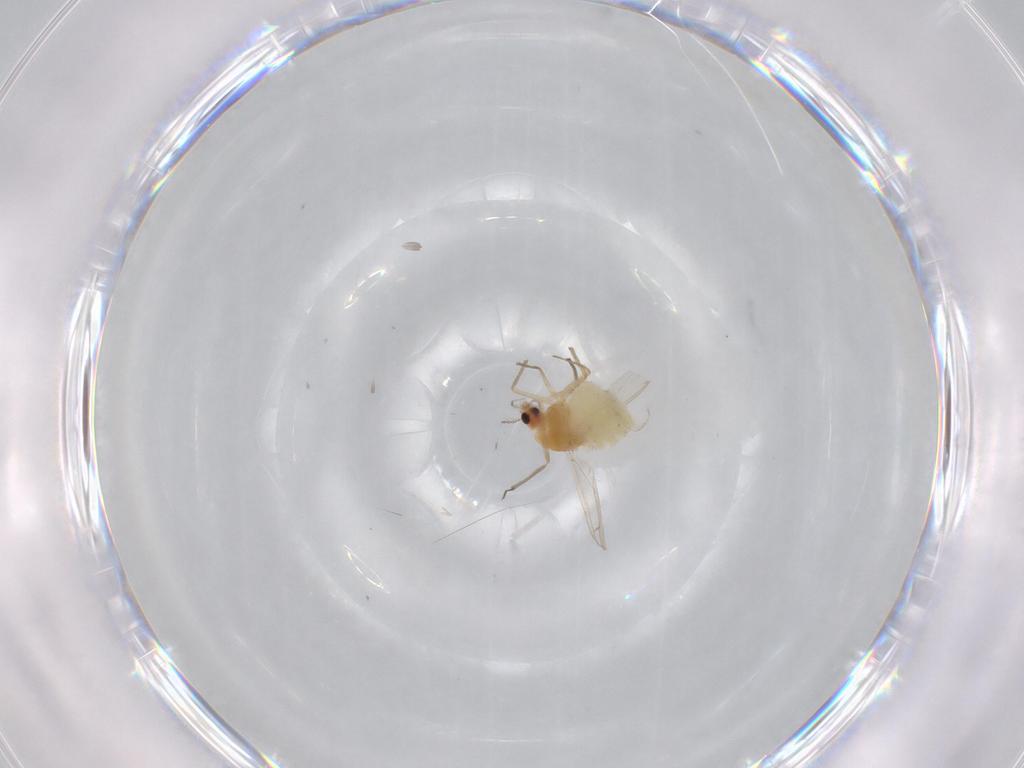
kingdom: Animalia
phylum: Arthropoda
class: Insecta
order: Diptera
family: Chironomidae
